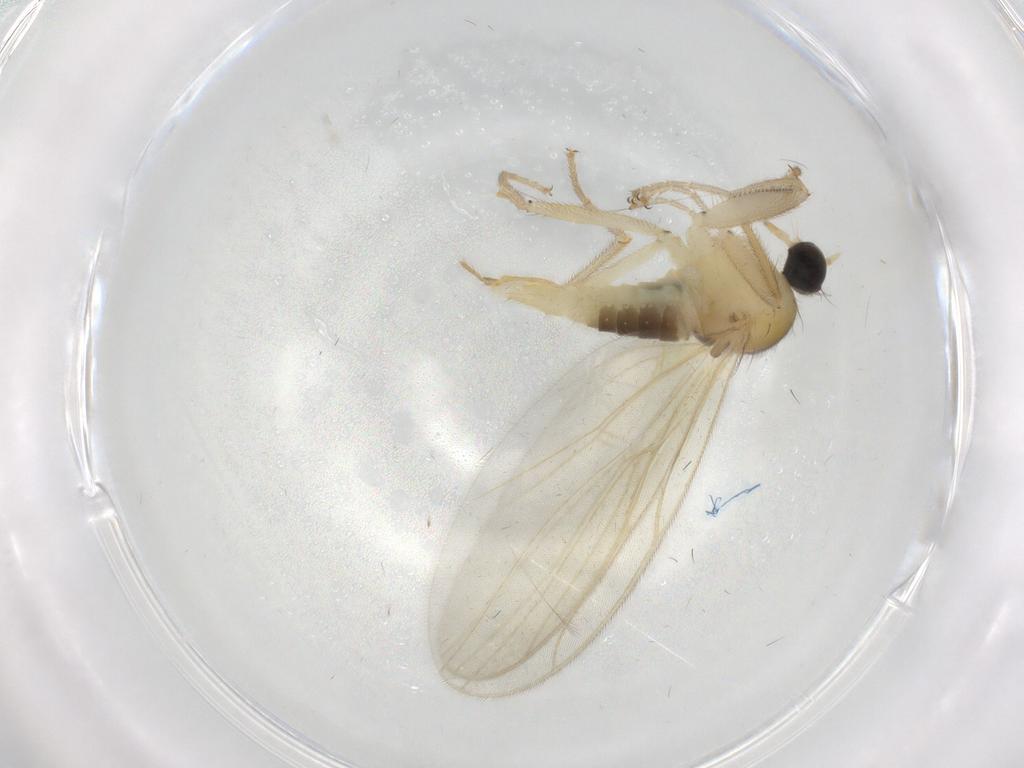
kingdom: Animalia
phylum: Arthropoda
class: Insecta
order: Diptera
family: Hybotidae
